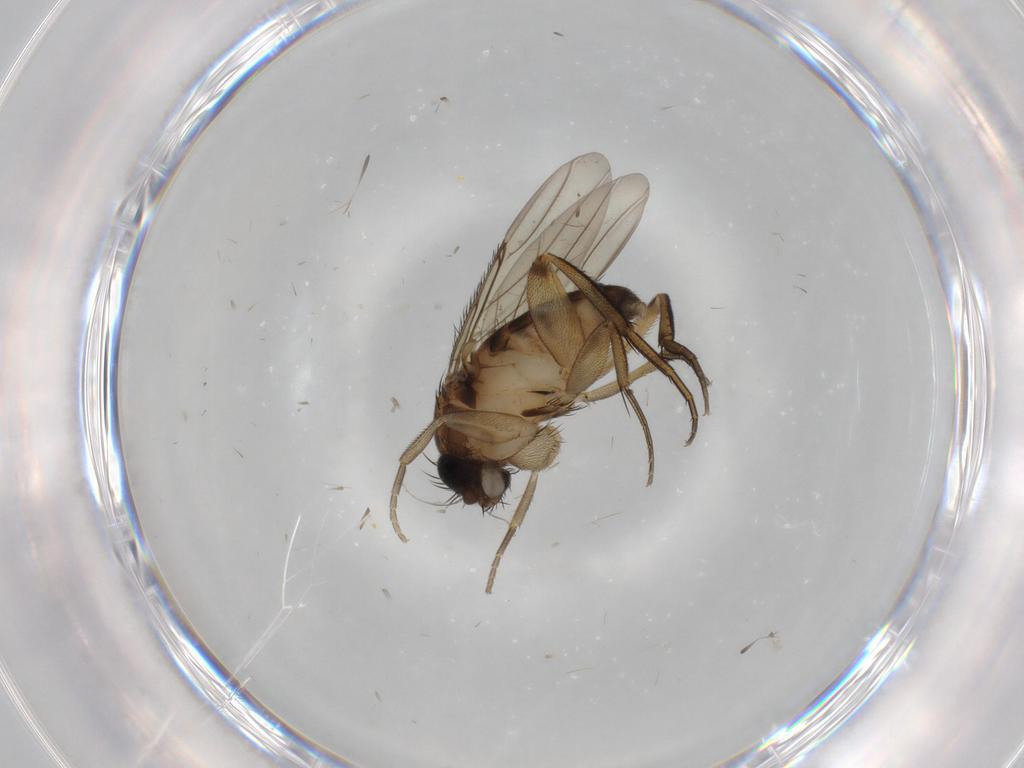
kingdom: Animalia
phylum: Arthropoda
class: Insecta
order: Diptera
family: Phoridae
